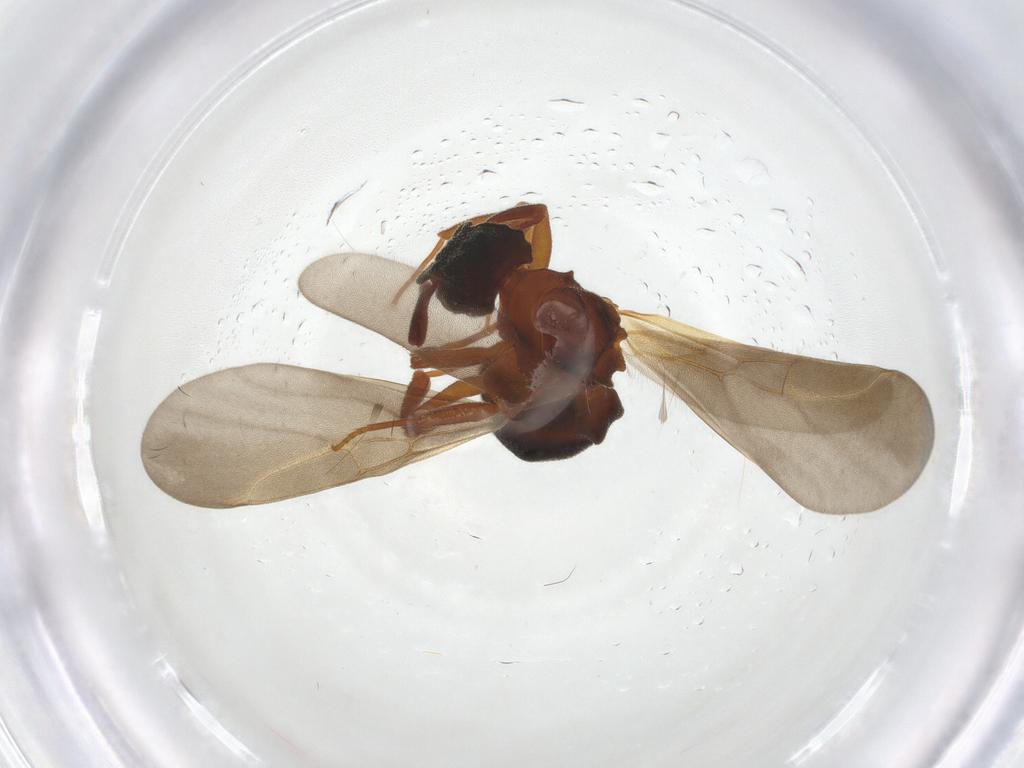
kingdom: Animalia
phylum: Arthropoda
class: Insecta
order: Hymenoptera
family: Formicidae
